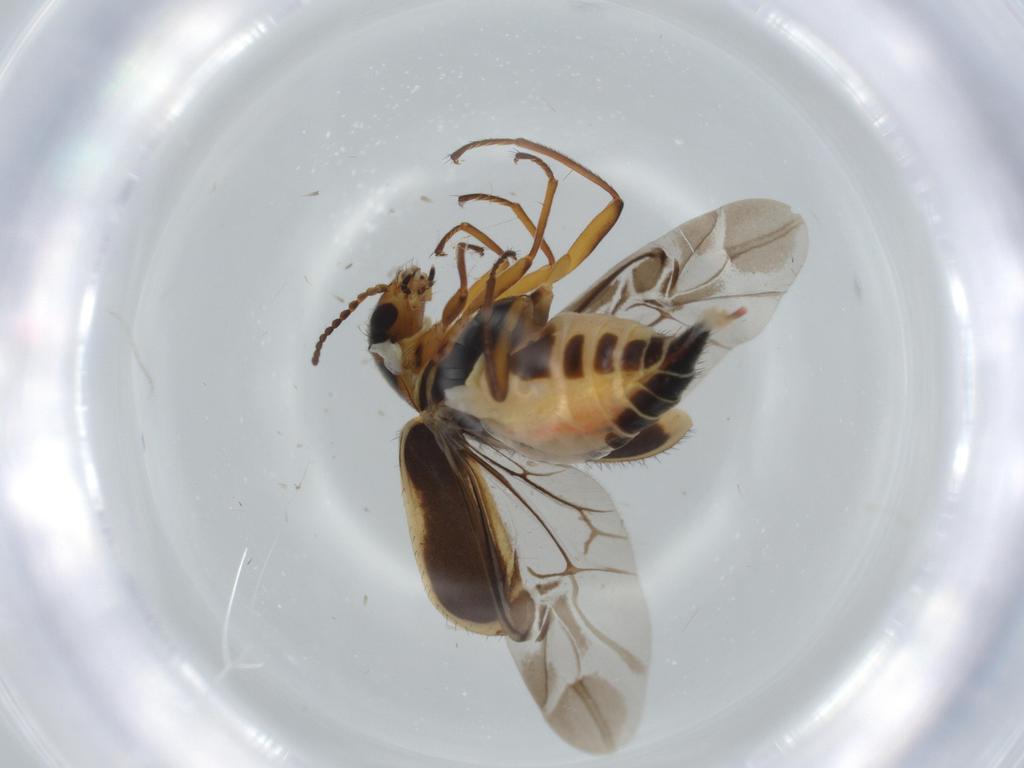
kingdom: Animalia
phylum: Arthropoda
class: Insecta
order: Coleoptera
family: Melyridae
